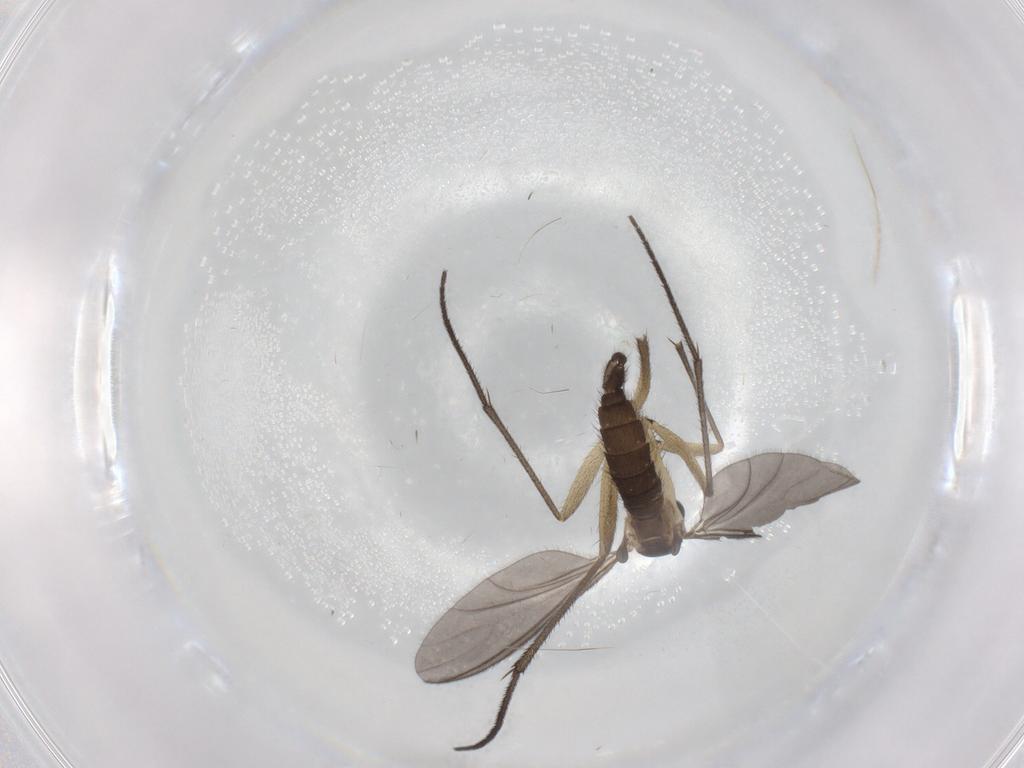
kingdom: Animalia
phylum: Arthropoda
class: Insecta
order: Diptera
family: Sciaridae
